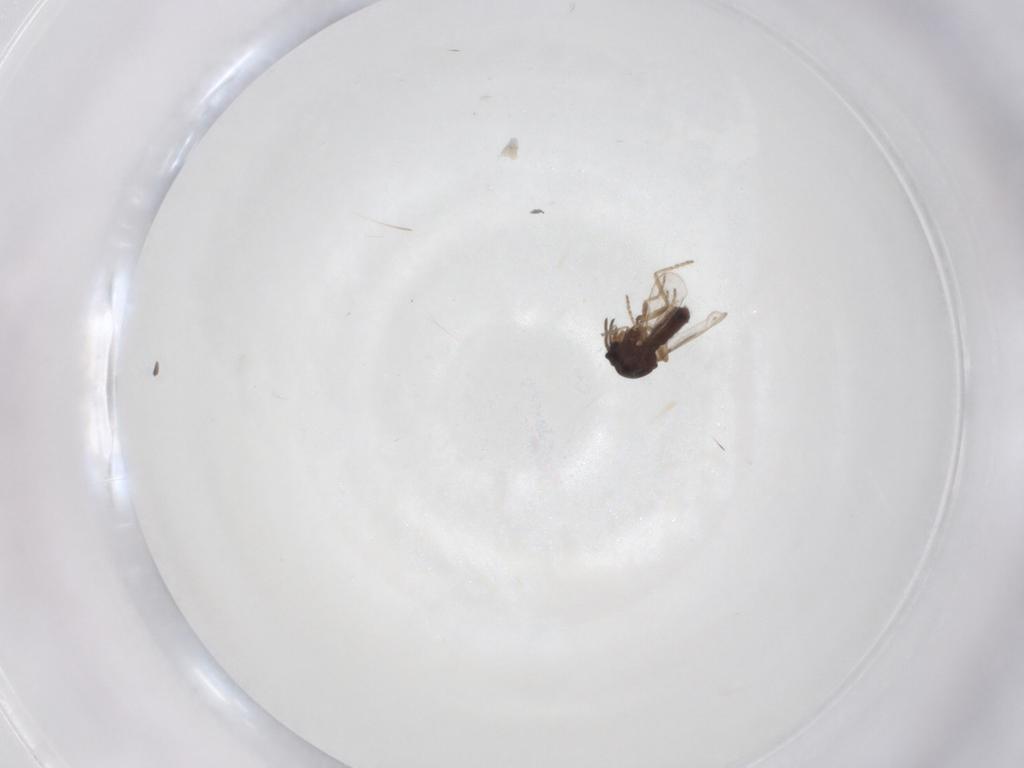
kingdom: Animalia
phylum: Arthropoda
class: Insecta
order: Diptera
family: Ceratopogonidae
